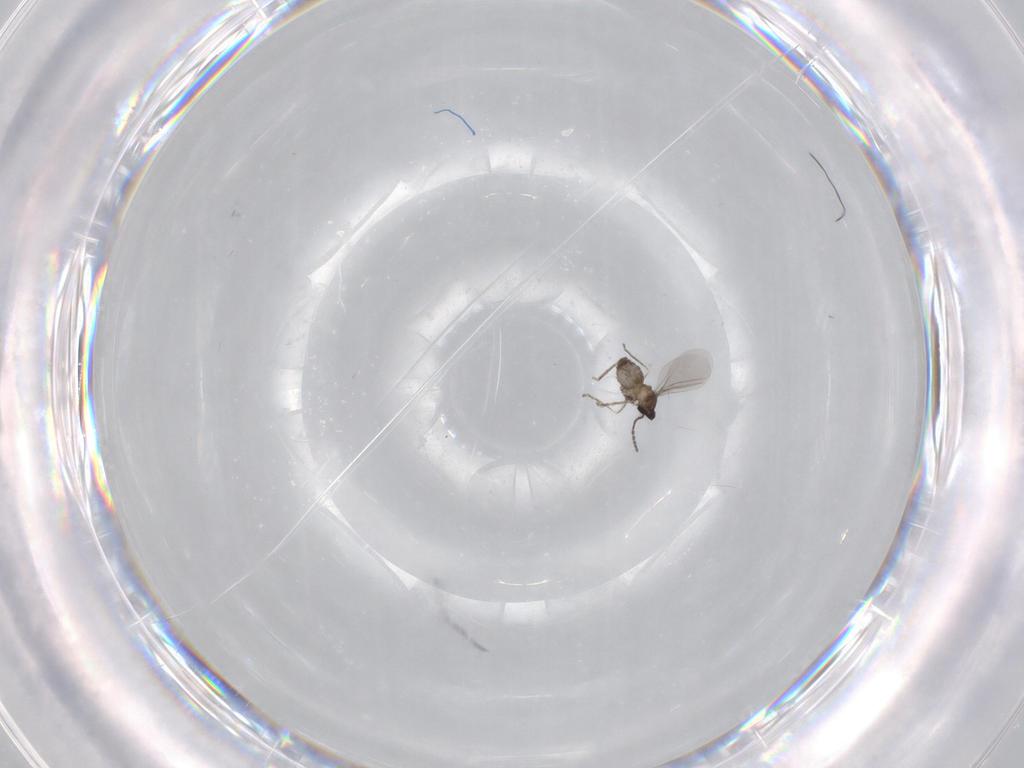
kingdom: Animalia
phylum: Arthropoda
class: Insecta
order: Diptera
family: Cecidomyiidae
